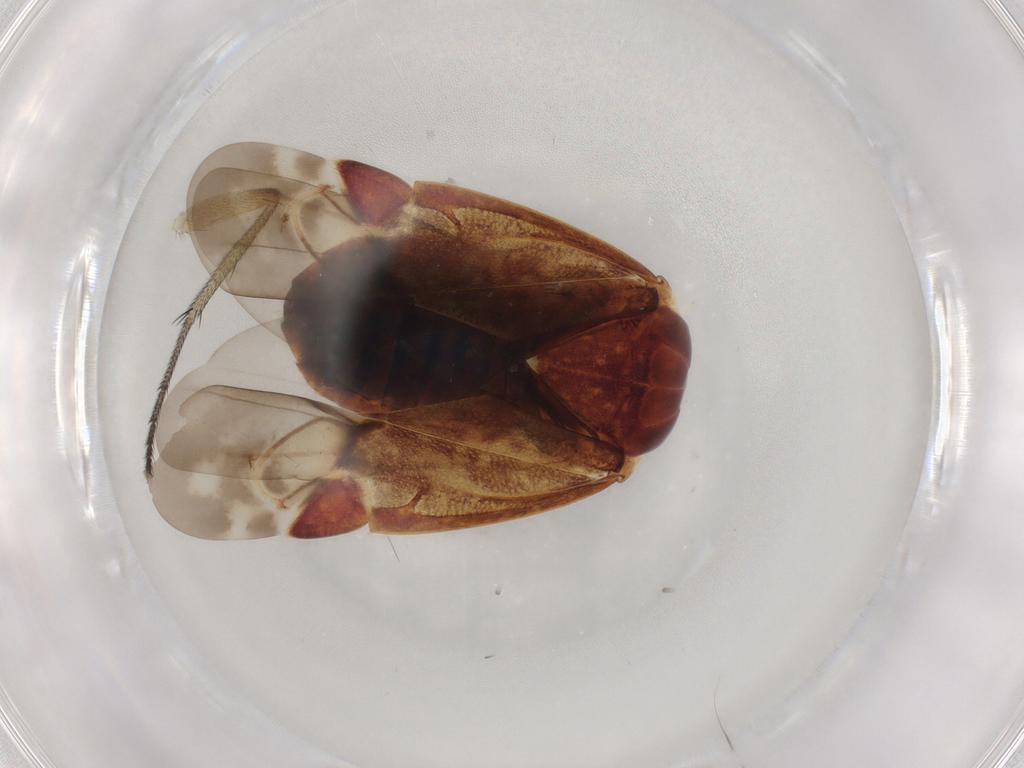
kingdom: Animalia
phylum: Arthropoda
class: Insecta
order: Hemiptera
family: Miridae
